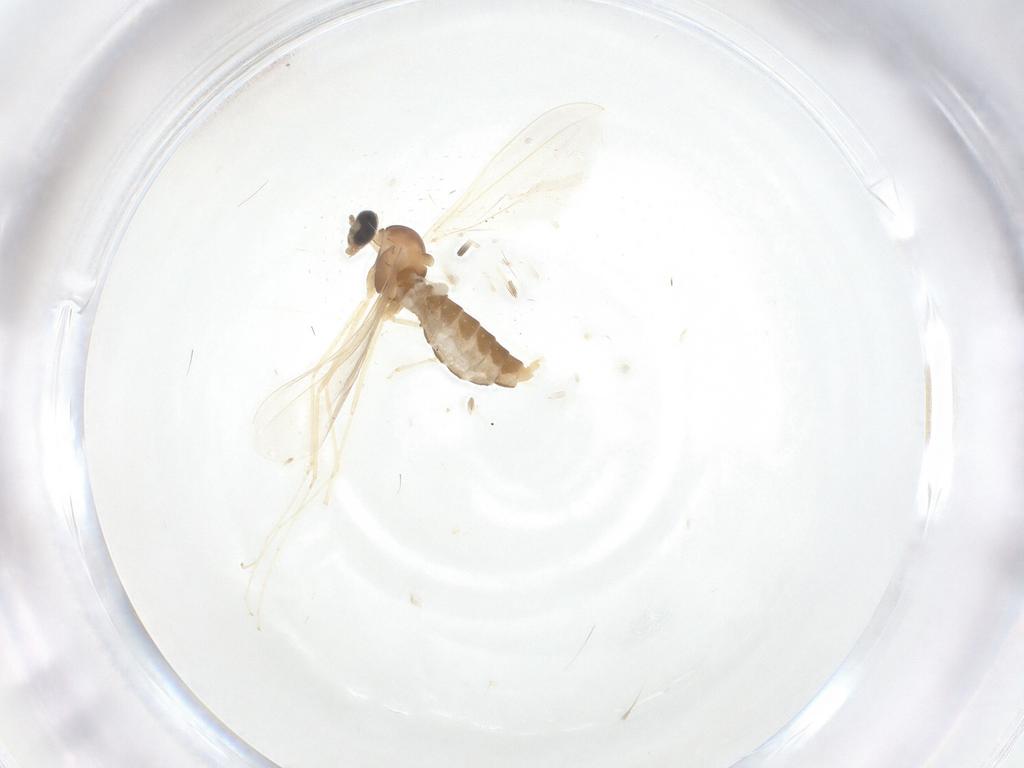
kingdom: Animalia
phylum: Arthropoda
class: Insecta
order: Diptera
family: Cecidomyiidae
